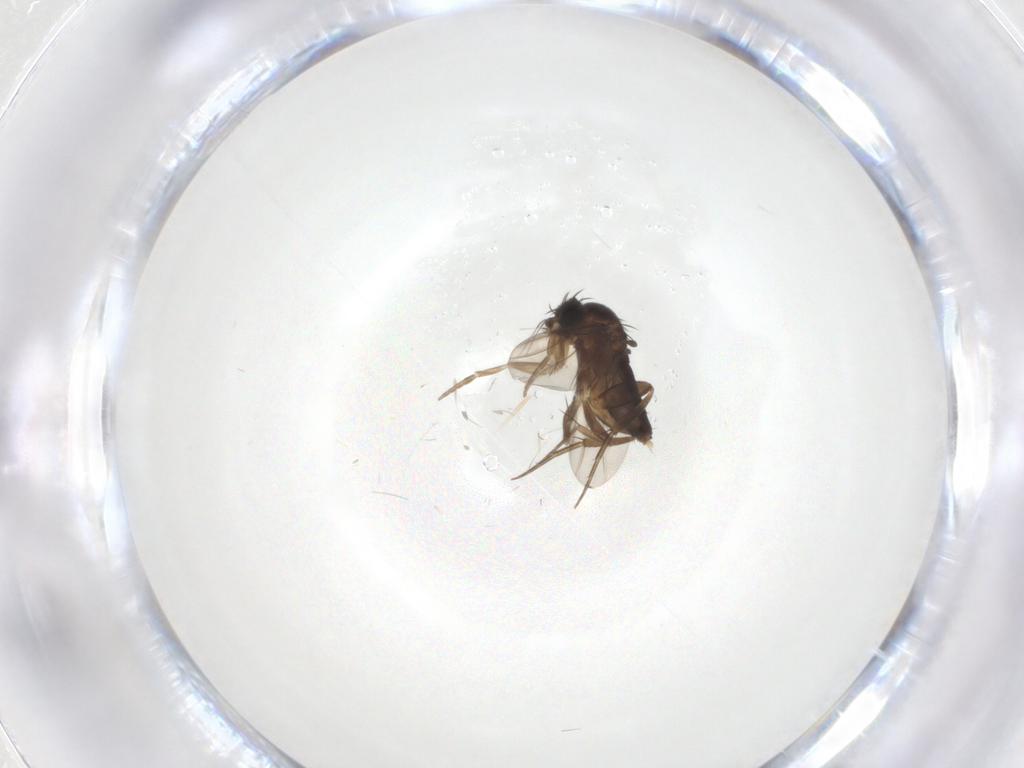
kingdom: Animalia
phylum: Arthropoda
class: Insecta
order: Diptera
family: Phoridae
